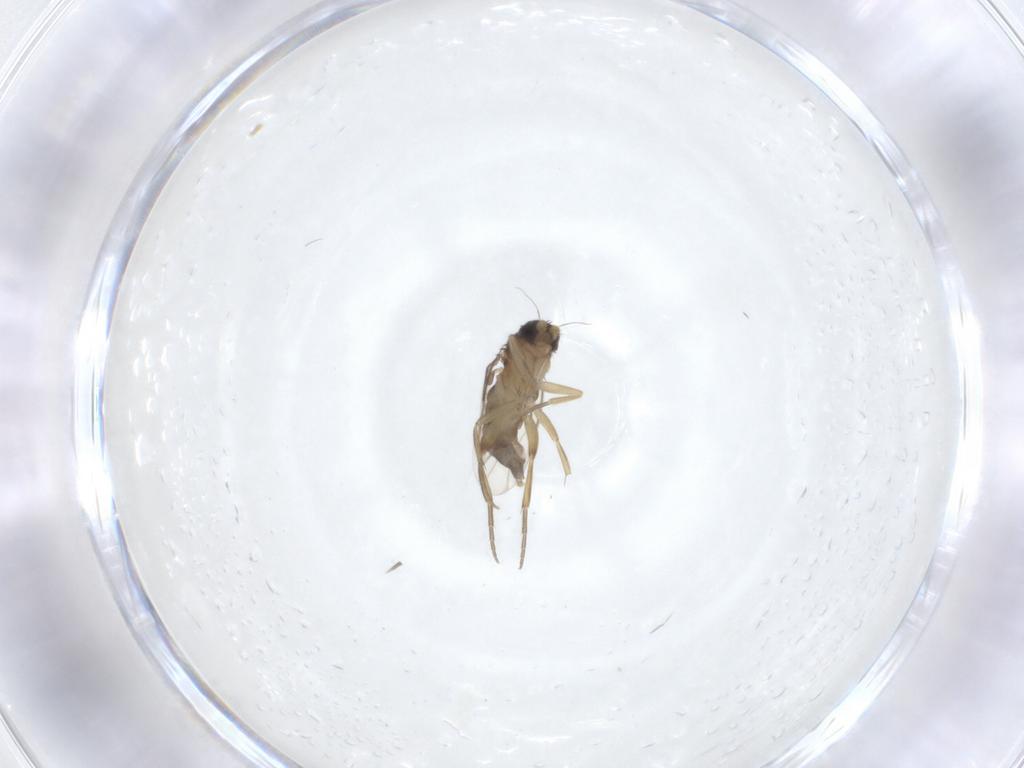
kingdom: Animalia
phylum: Arthropoda
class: Insecta
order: Diptera
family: Phoridae
